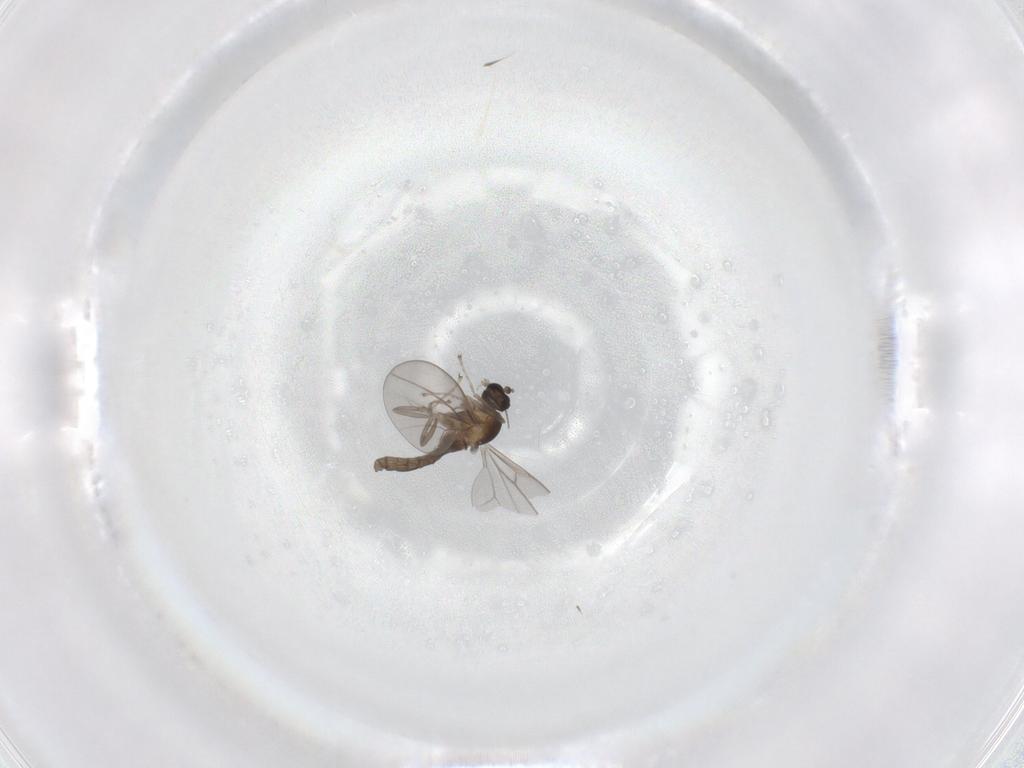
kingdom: Animalia
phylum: Arthropoda
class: Insecta
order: Diptera
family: Cecidomyiidae
